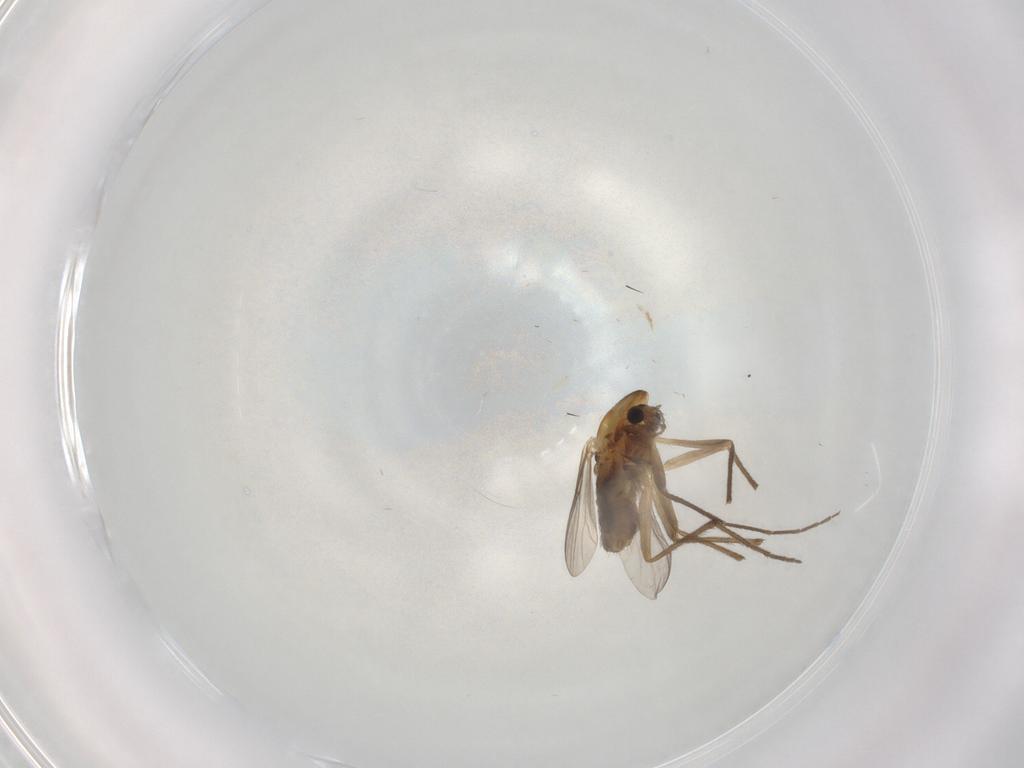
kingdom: Animalia
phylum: Arthropoda
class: Insecta
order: Diptera
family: Chironomidae
